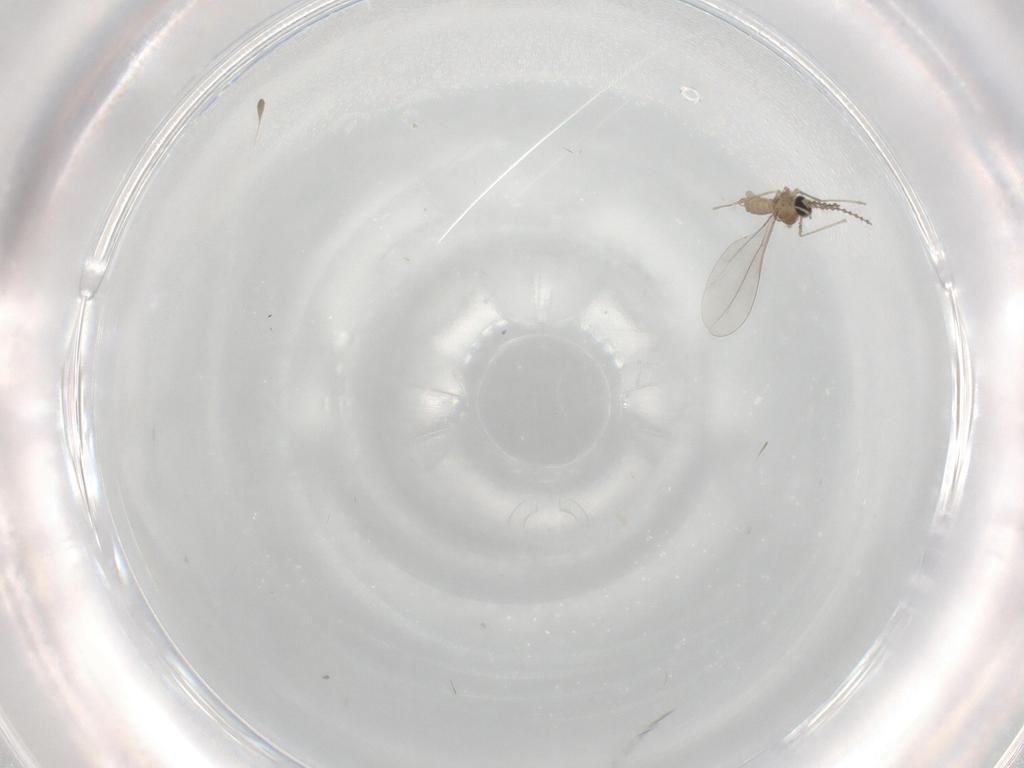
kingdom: Animalia
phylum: Arthropoda
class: Insecta
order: Diptera
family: Phoridae
